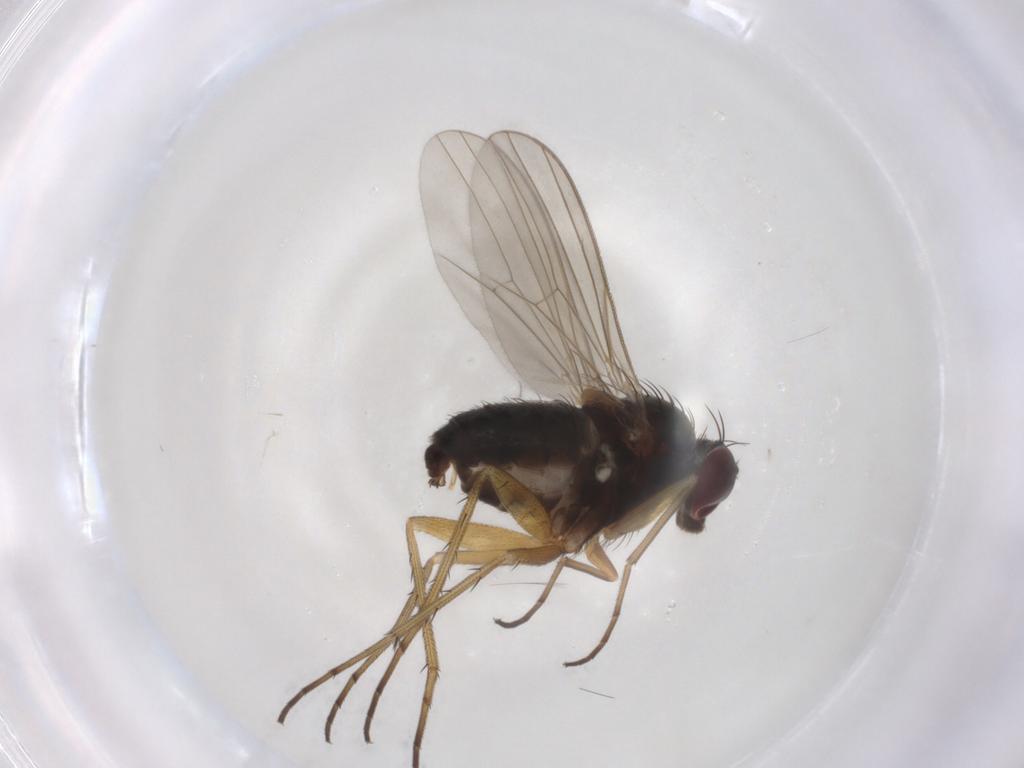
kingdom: Animalia
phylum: Arthropoda
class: Insecta
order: Diptera
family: Dolichopodidae
